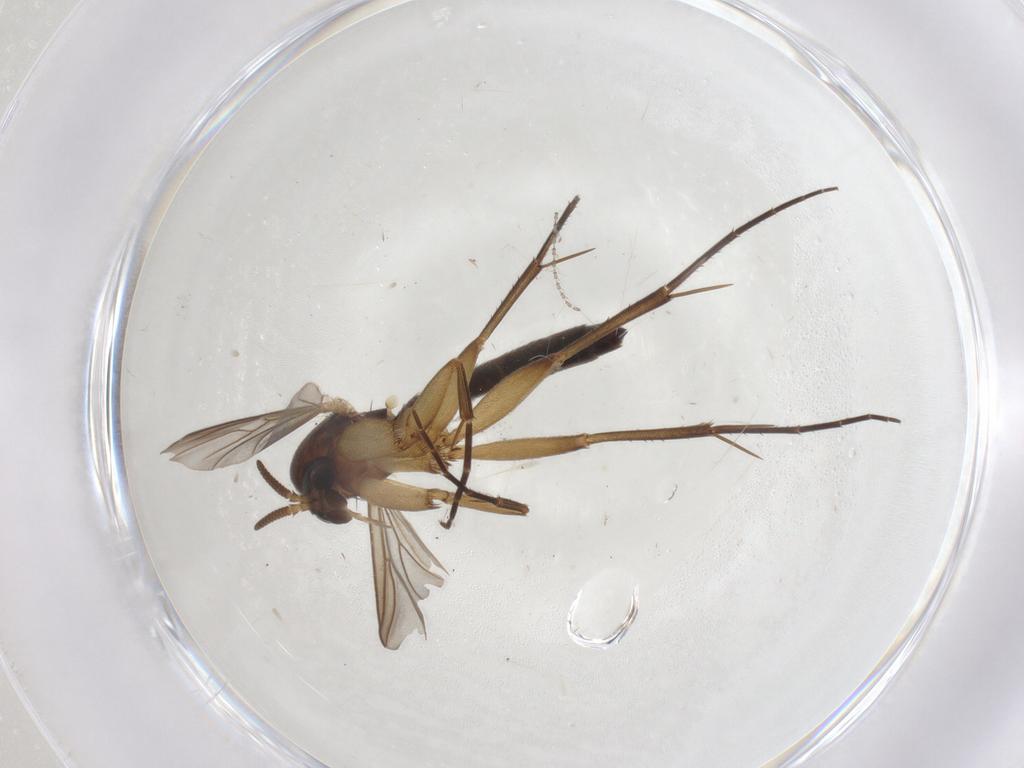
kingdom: Animalia
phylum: Arthropoda
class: Insecta
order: Diptera
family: Mycetophilidae
